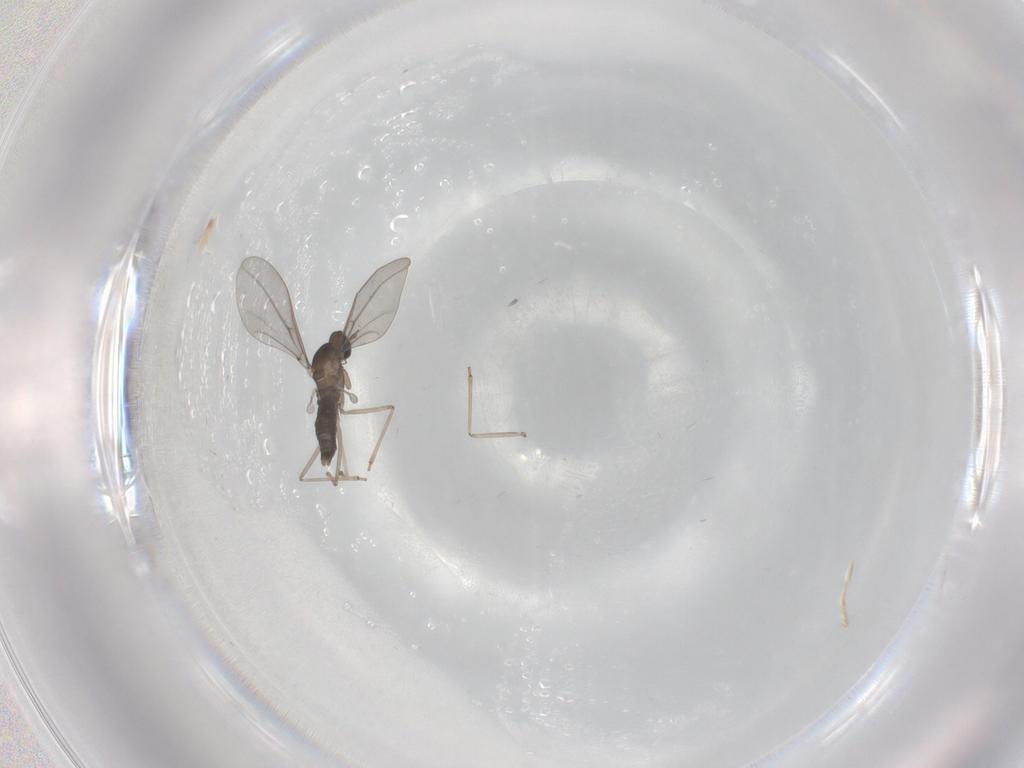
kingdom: Animalia
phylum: Arthropoda
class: Insecta
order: Diptera
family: Cecidomyiidae
